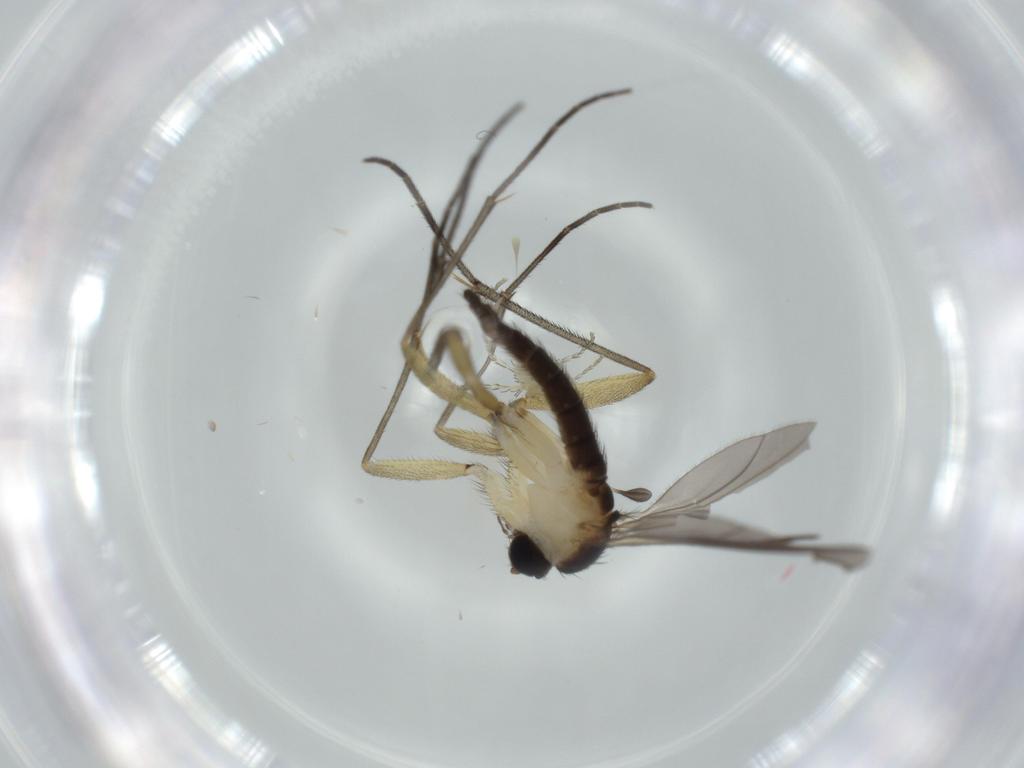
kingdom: Animalia
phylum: Arthropoda
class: Insecta
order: Diptera
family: Sciaridae
